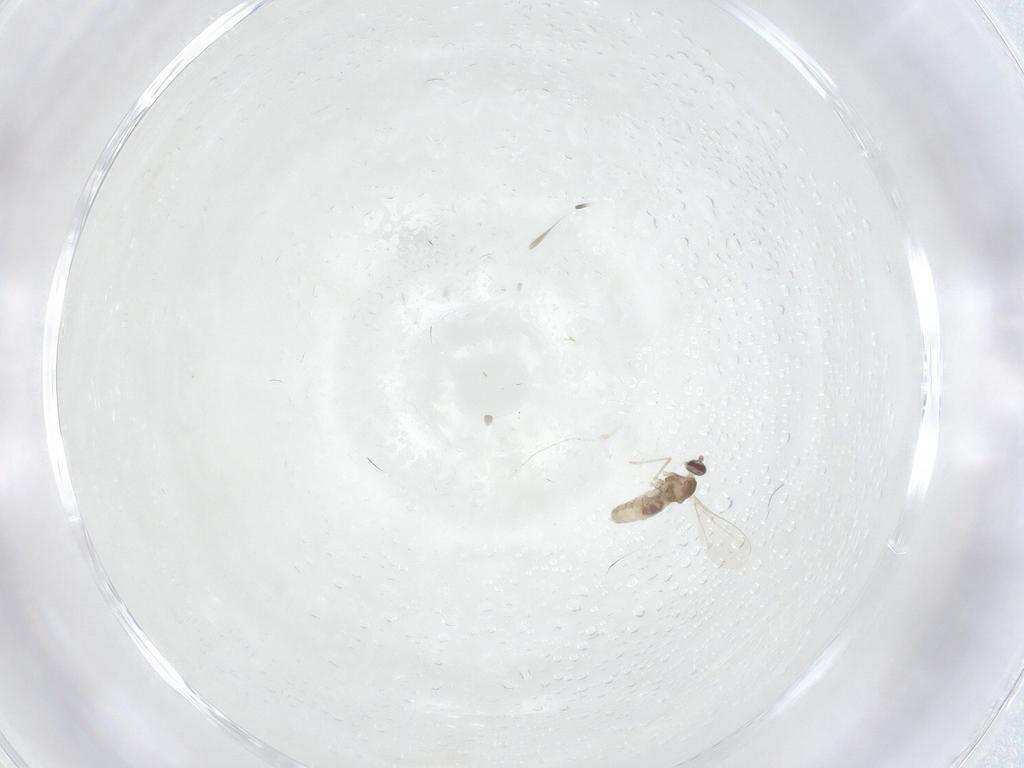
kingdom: Animalia
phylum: Arthropoda
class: Insecta
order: Diptera
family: Cecidomyiidae
